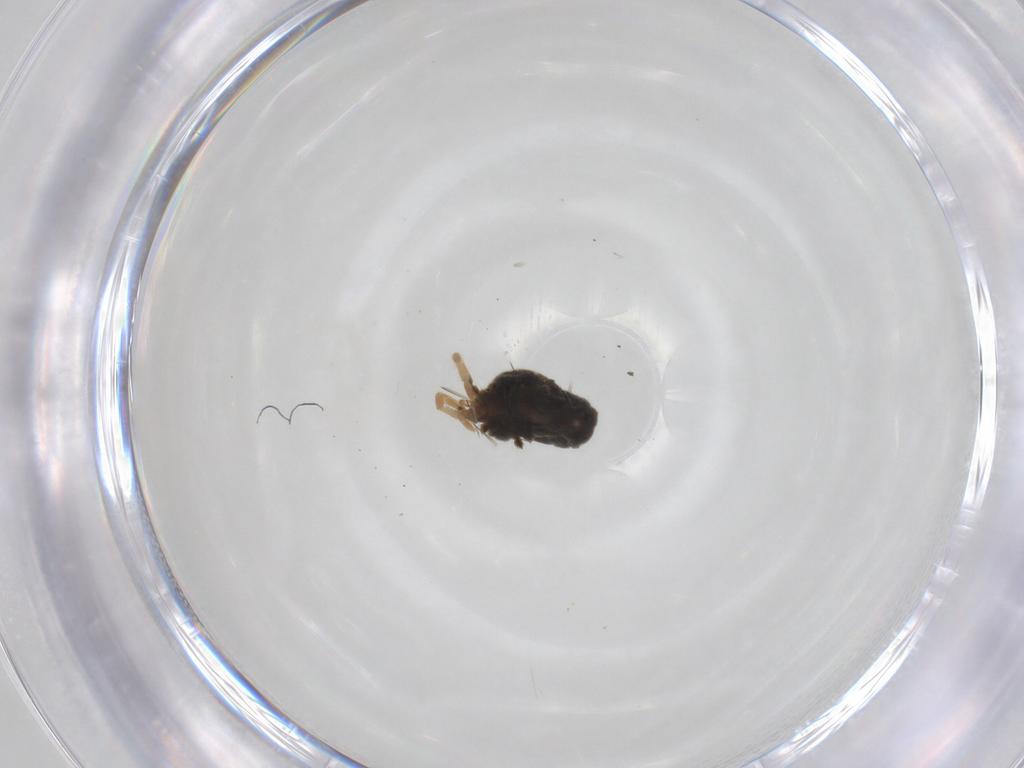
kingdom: Animalia
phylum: Arthropoda
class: Arachnida
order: Trombidiformes
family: Erythraeidae
